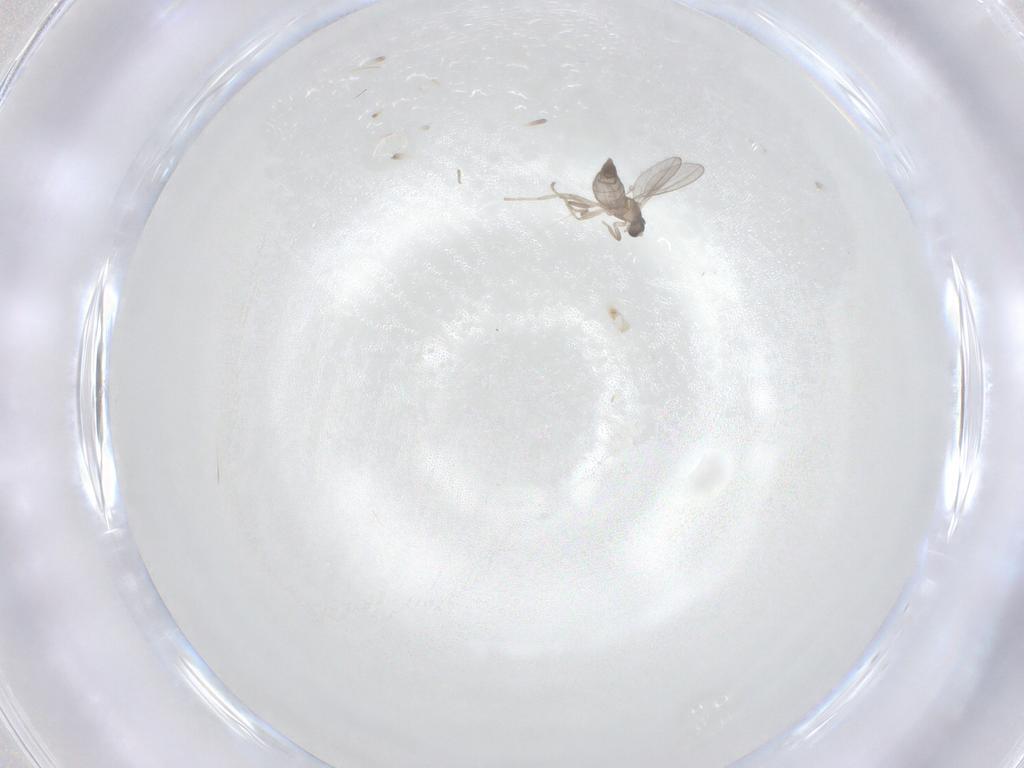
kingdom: Animalia
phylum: Arthropoda
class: Insecta
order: Diptera
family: Cecidomyiidae
